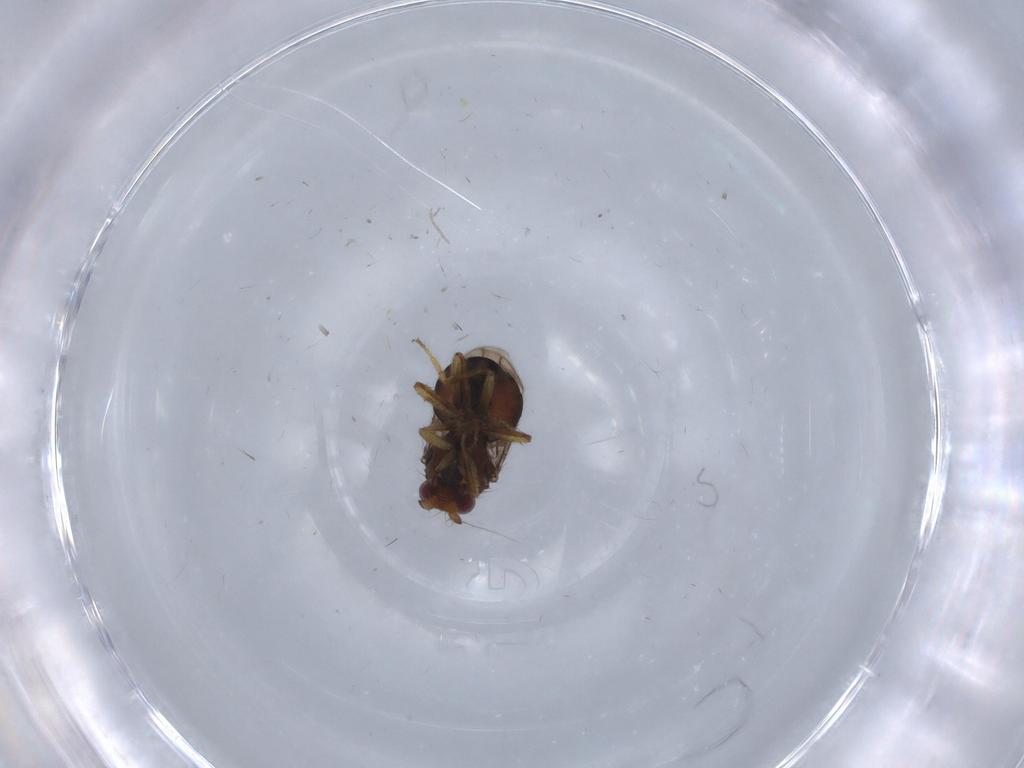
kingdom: Animalia
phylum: Arthropoda
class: Insecta
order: Diptera
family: Sphaeroceridae
